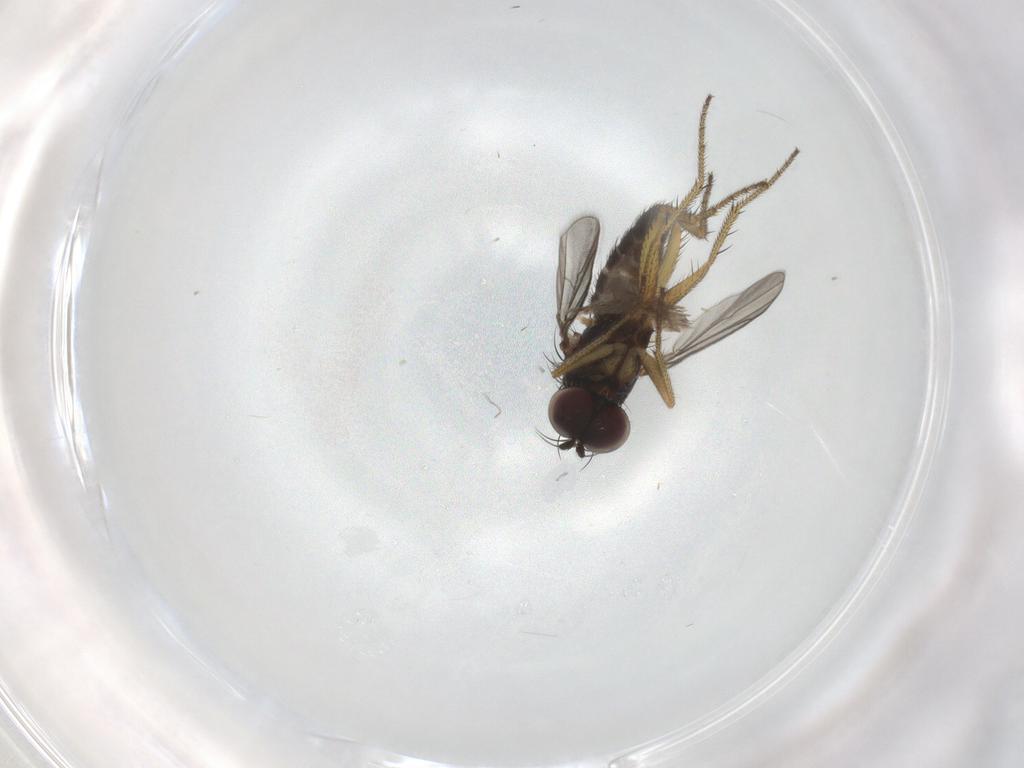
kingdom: Animalia
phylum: Arthropoda
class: Insecta
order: Diptera
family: Dolichopodidae
